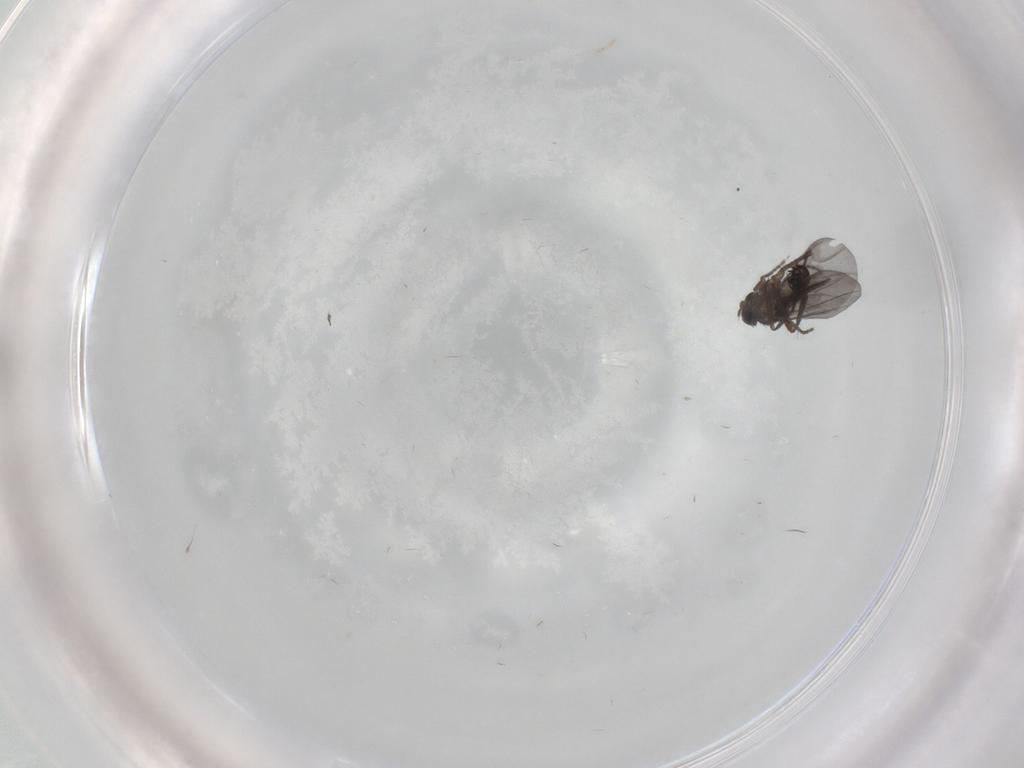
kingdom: Animalia
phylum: Arthropoda
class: Insecta
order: Diptera
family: Phoridae
